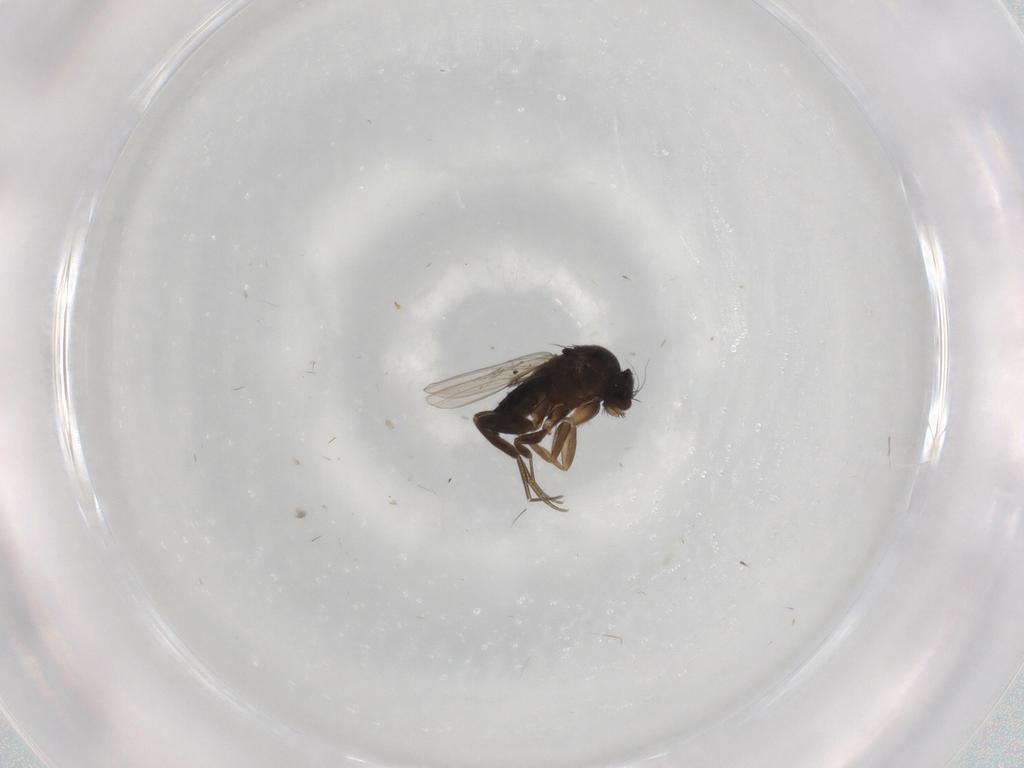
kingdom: Animalia
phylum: Arthropoda
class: Insecta
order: Diptera
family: Phoridae
